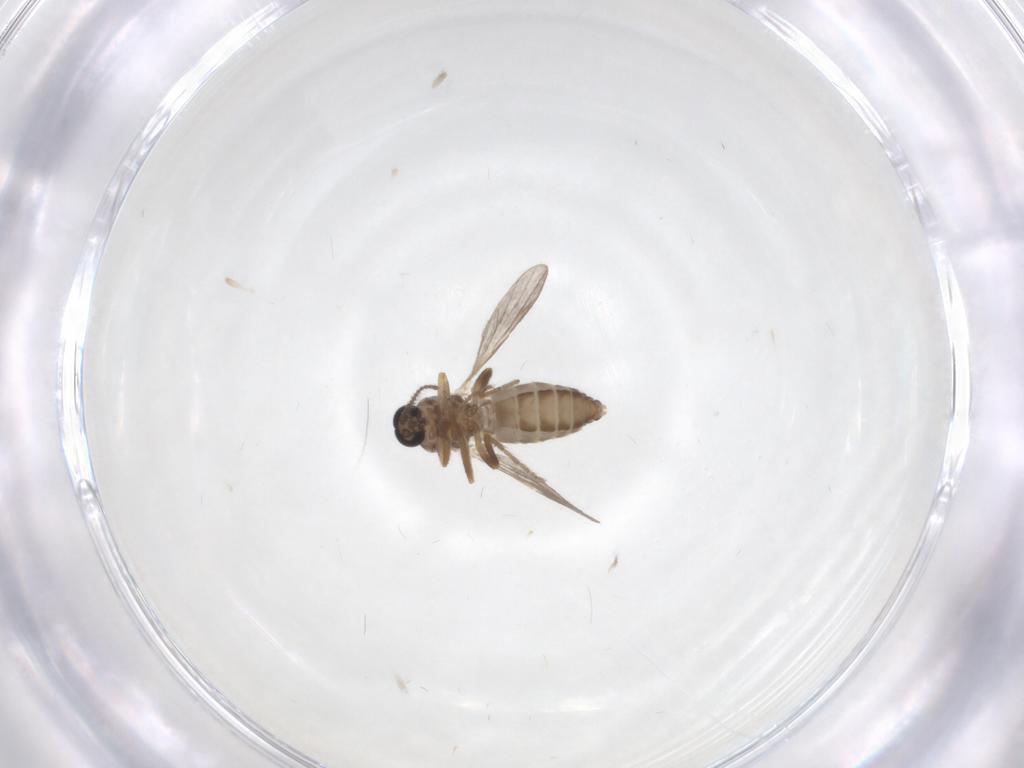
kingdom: Animalia
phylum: Arthropoda
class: Insecta
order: Diptera
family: Ceratopogonidae
